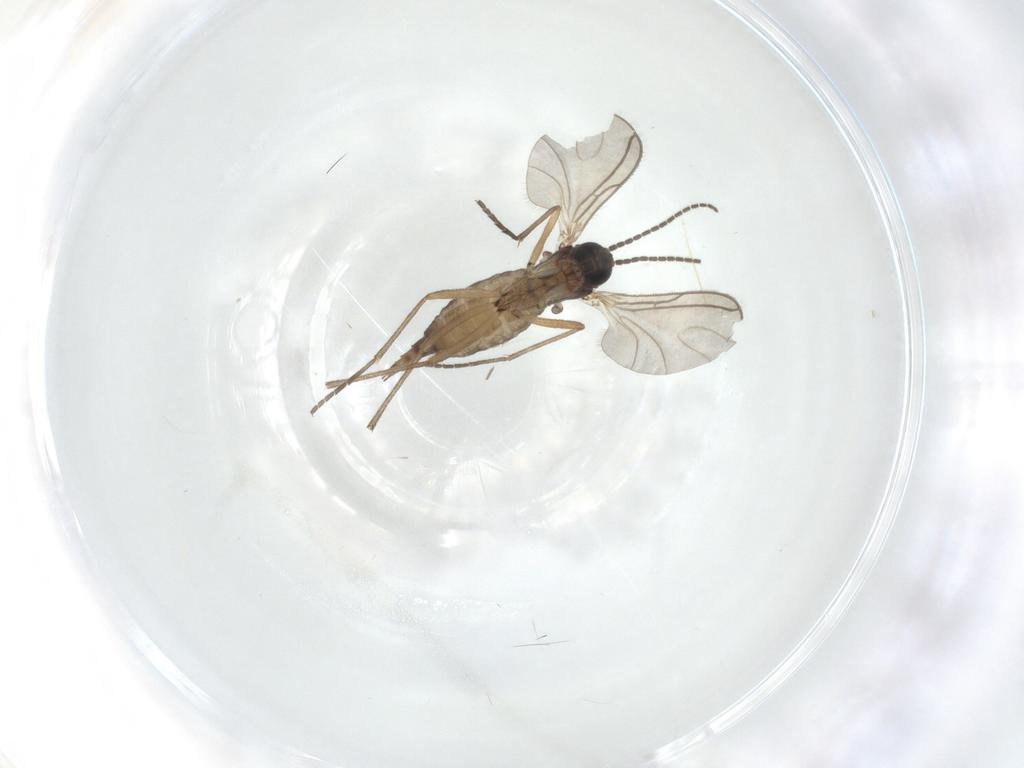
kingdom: Animalia
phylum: Arthropoda
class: Insecta
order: Diptera
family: Sciaridae
